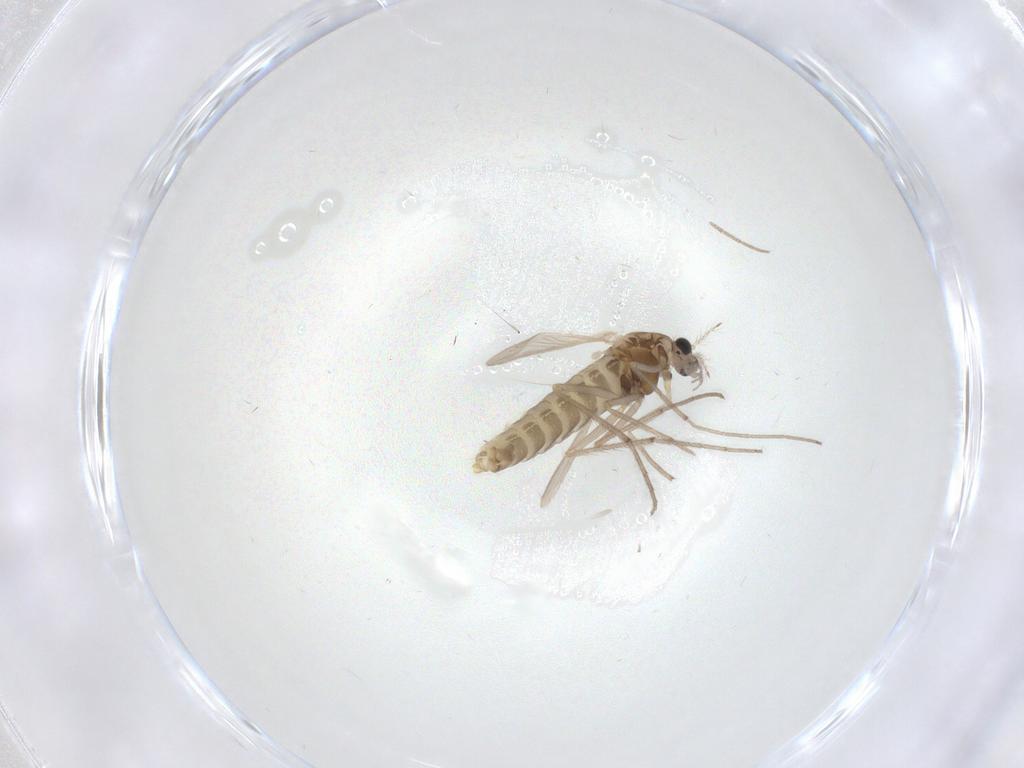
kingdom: Animalia
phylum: Arthropoda
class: Insecta
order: Diptera
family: Chironomidae
